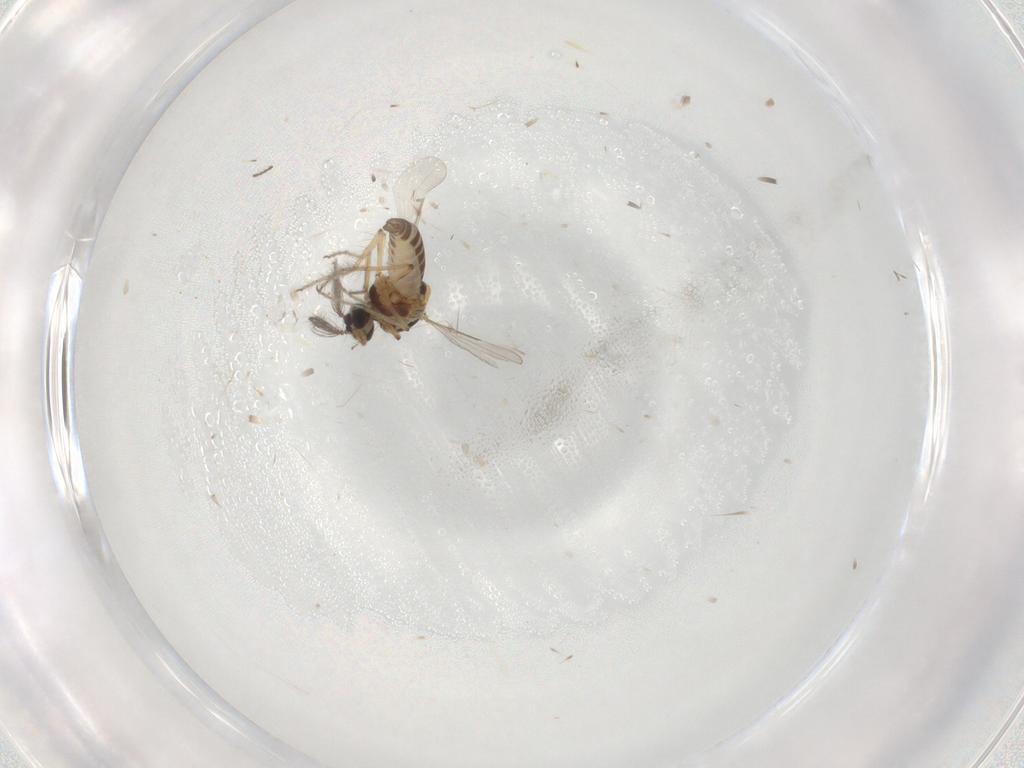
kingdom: Animalia
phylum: Arthropoda
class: Insecta
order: Diptera
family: Ceratopogonidae
